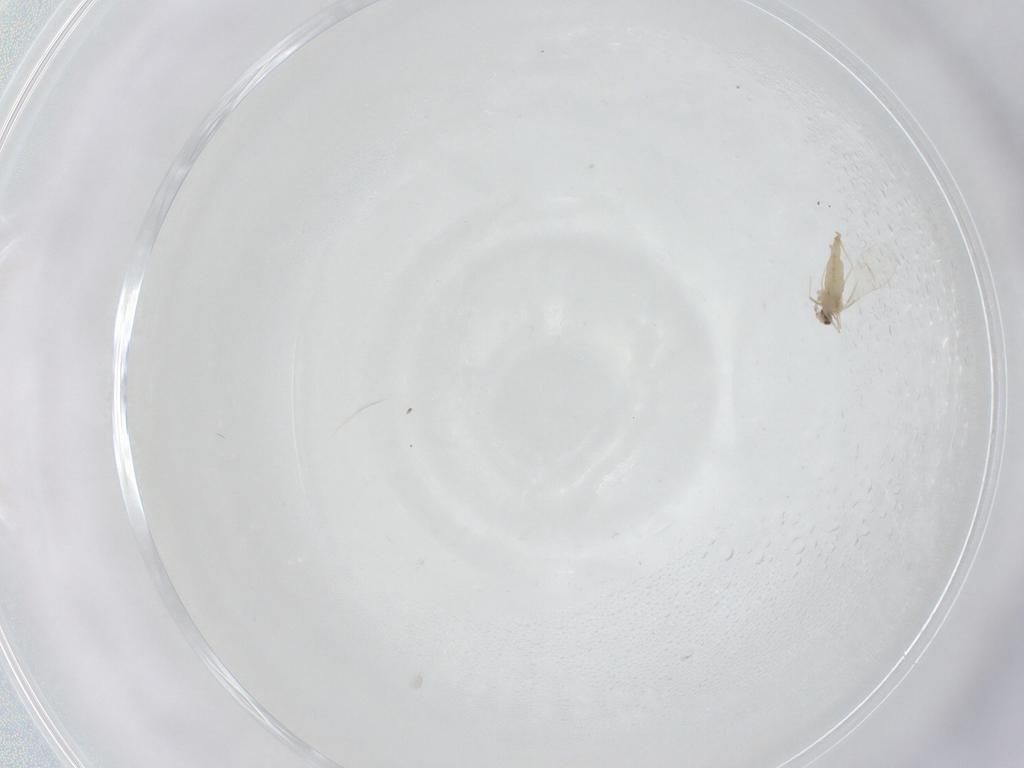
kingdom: Animalia
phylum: Arthropoda
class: Insecta
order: Diptera
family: Cecidomyiidae
